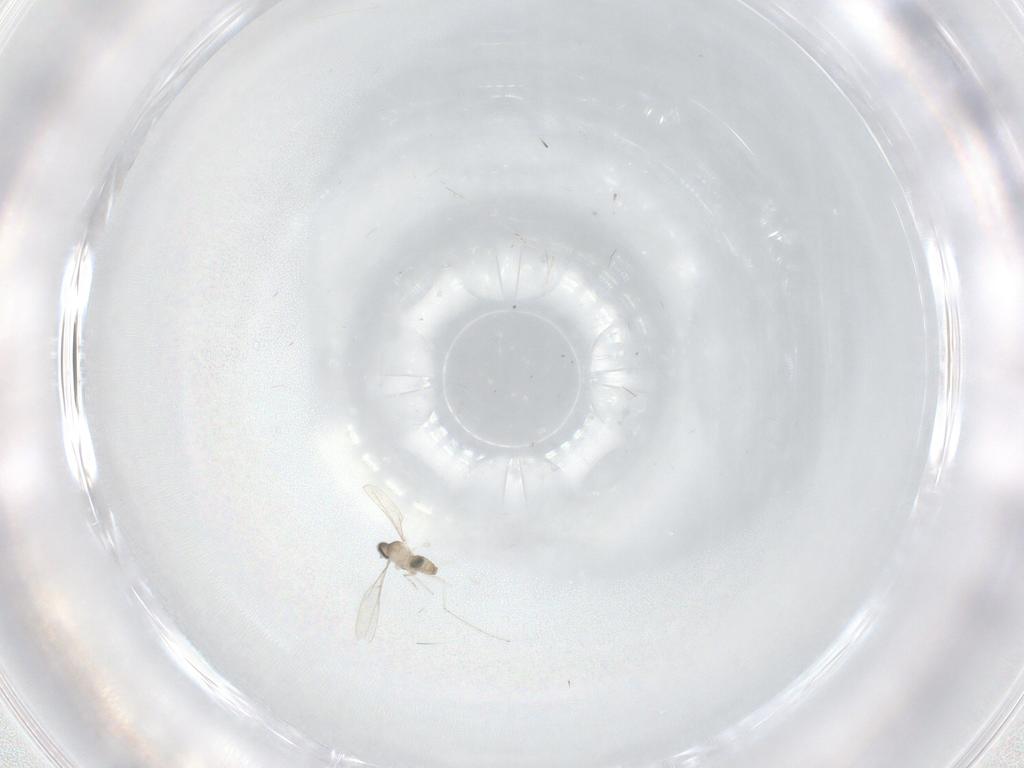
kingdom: Animalia
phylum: Arthropoda
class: Insecta
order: Diptera
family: Cecidomyiidae
